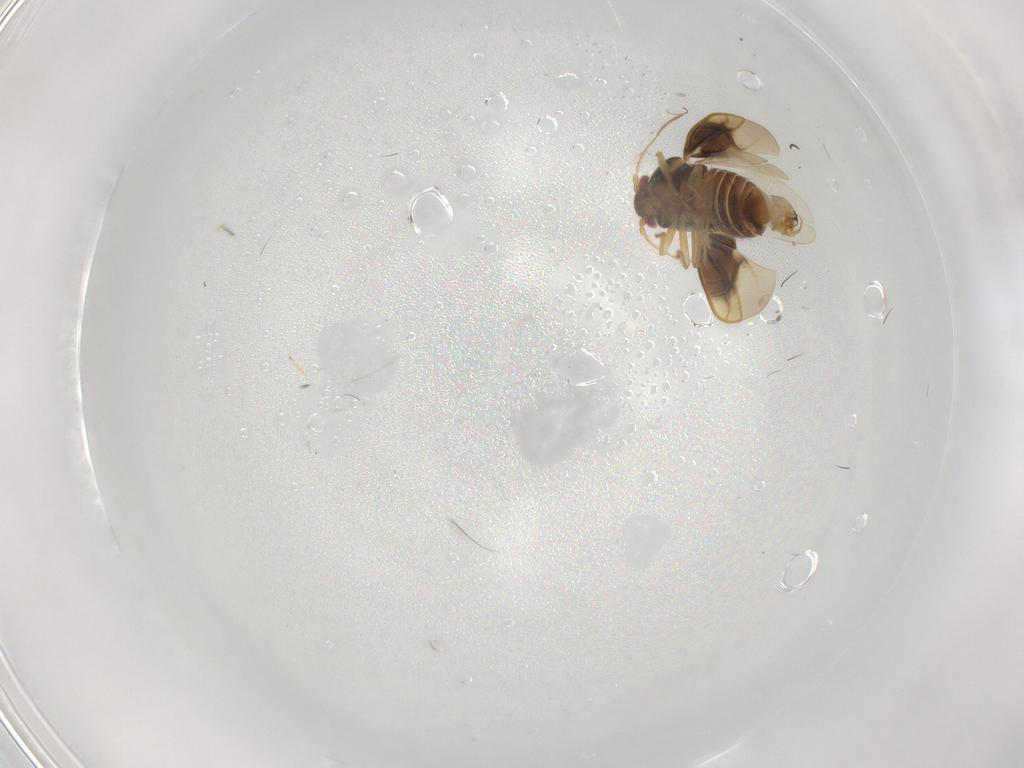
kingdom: Animalia
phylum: Arthropoda
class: Insecta
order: Hemiptera
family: Schizopteridae
